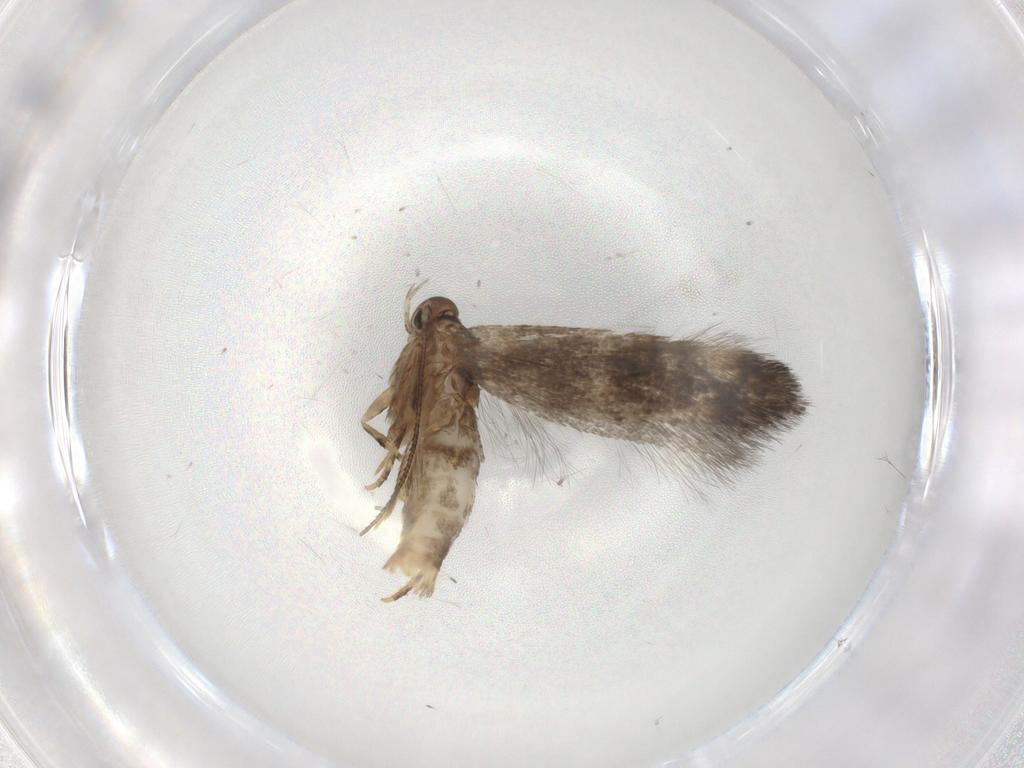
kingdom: Animalia
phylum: Arthropoda
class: Insecta
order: Lepidoptera
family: Elachistidae
